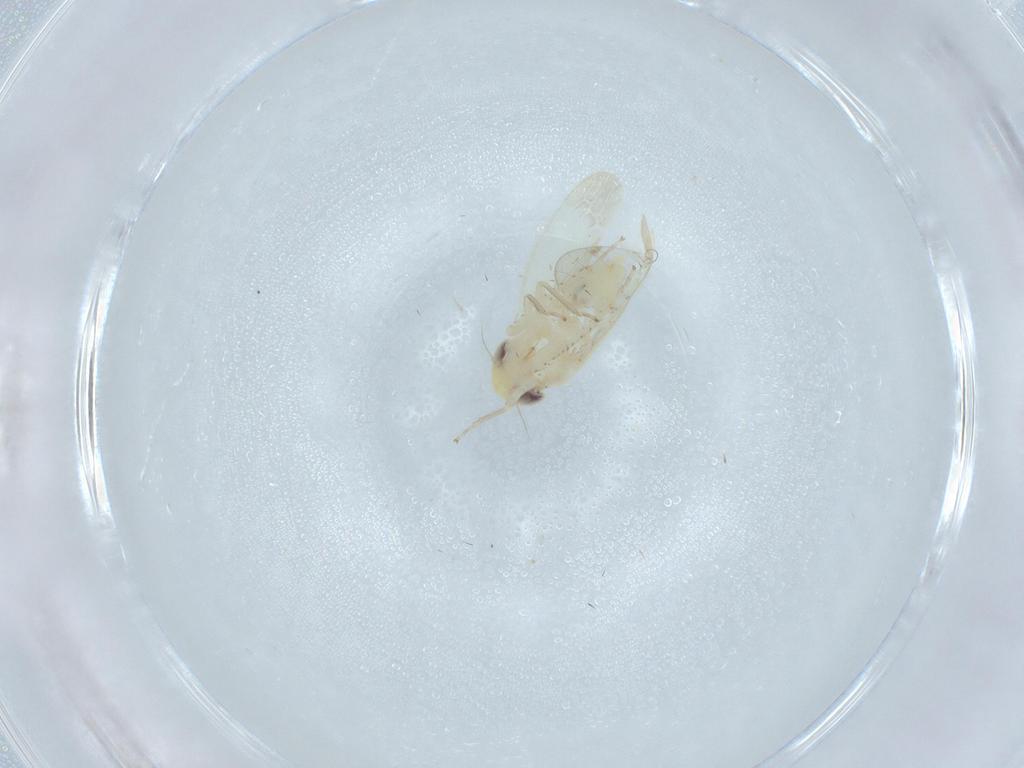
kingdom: Animalia
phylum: Arthropoda
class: Insecta
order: Hemiptera
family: Cicadellidae
